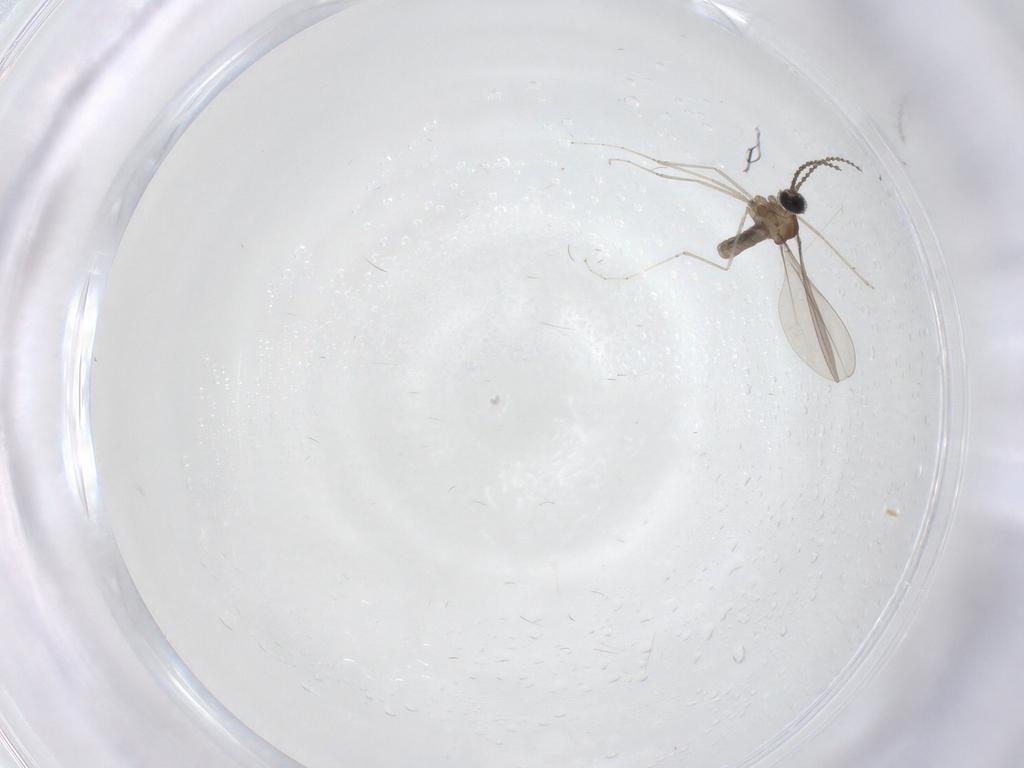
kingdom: Animalia
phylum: Arthropoda
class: Insecta
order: Diptera
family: Cecidomyiidae
